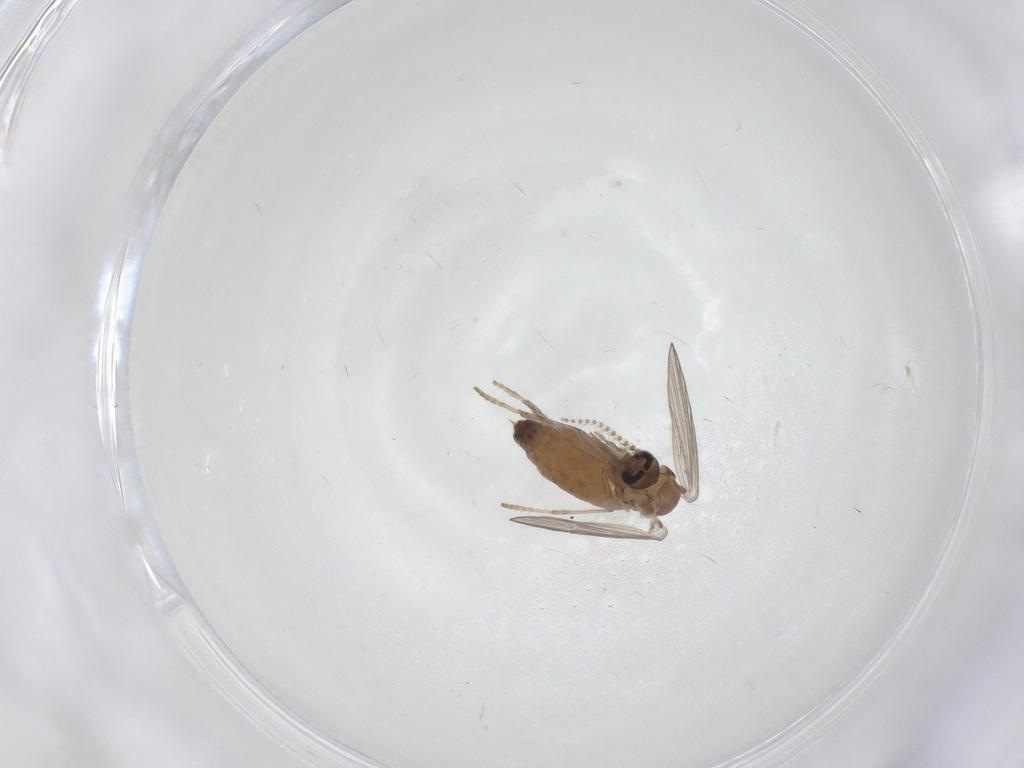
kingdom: Animalia
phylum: Arthropoda
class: Insecta
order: Diptera
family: Psychodidae
